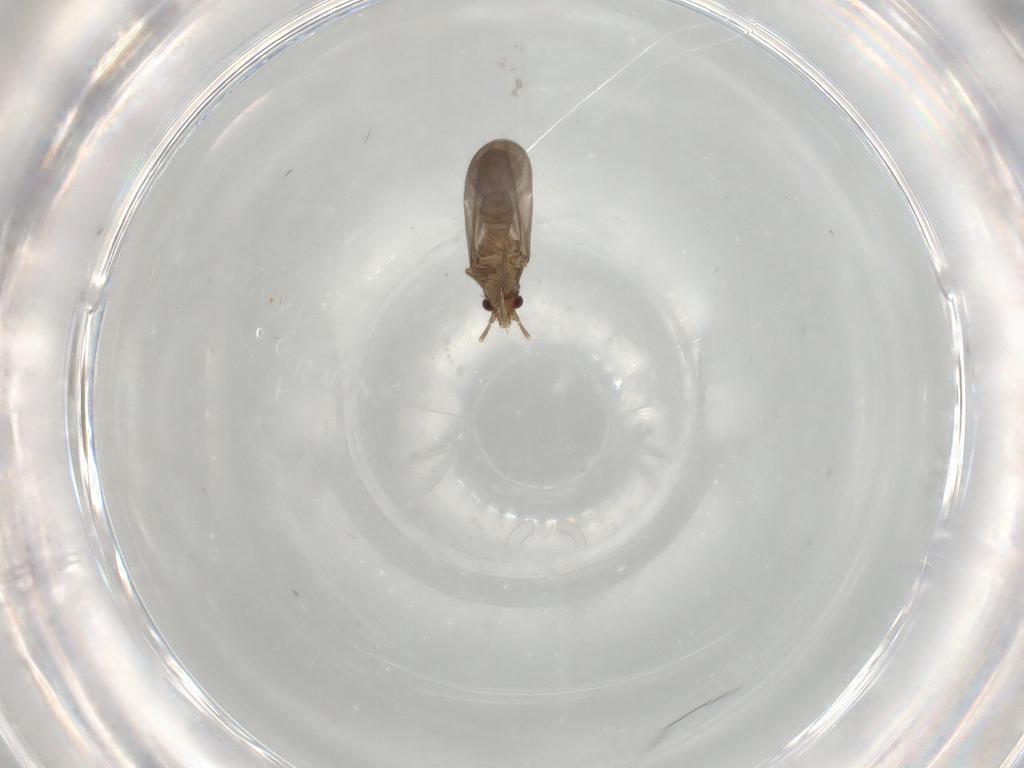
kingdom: Animalia
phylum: Arthropoda
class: Insecta
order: Hemiptera
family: Ceratocombidae
